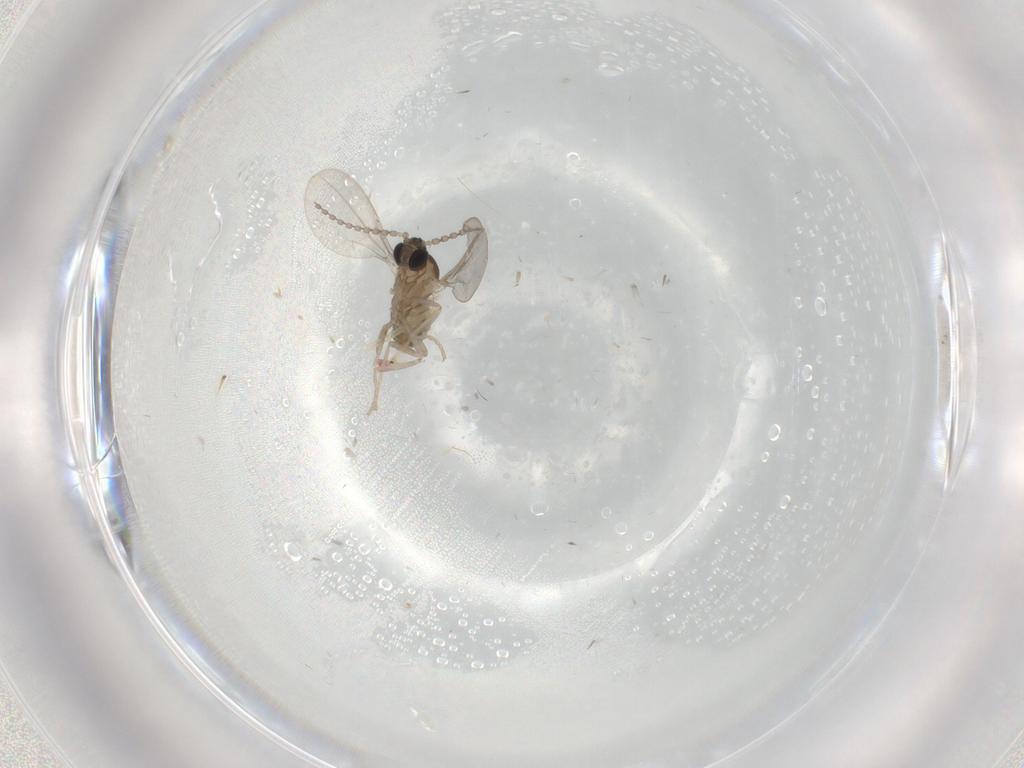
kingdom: Animalia
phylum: Arthropoda
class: Insecta
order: Diptera
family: Cecidomyiidae
